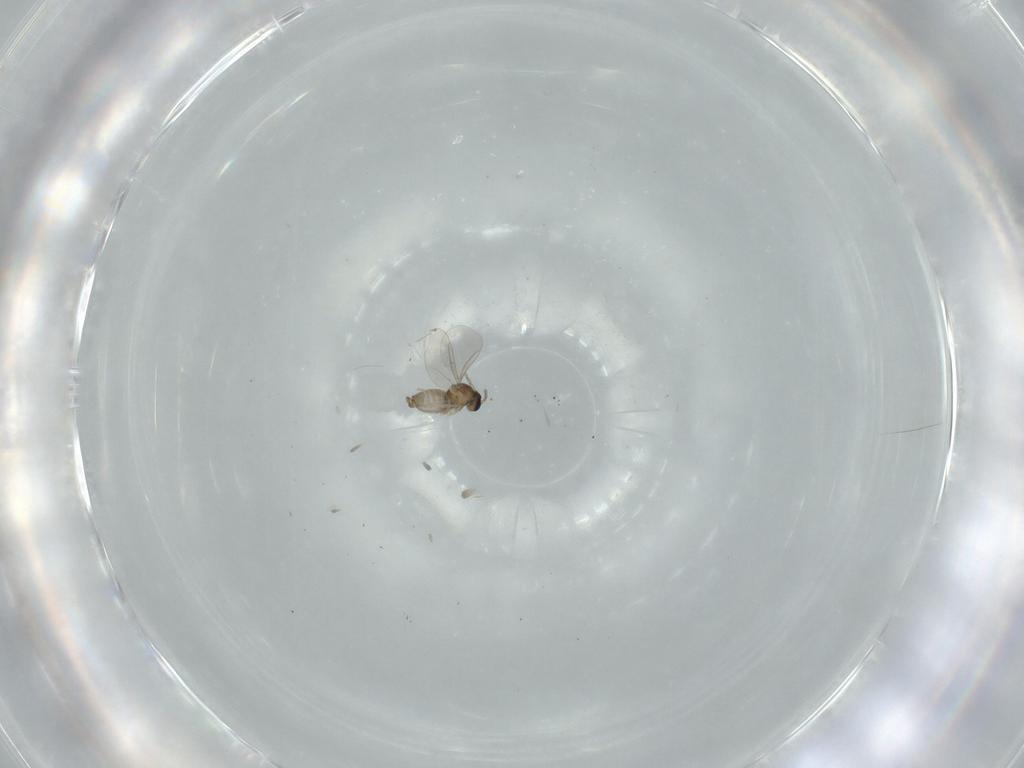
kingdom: Animalia
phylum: Arthropoda
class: Insecta
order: Diptera
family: Cecidomyiidae
